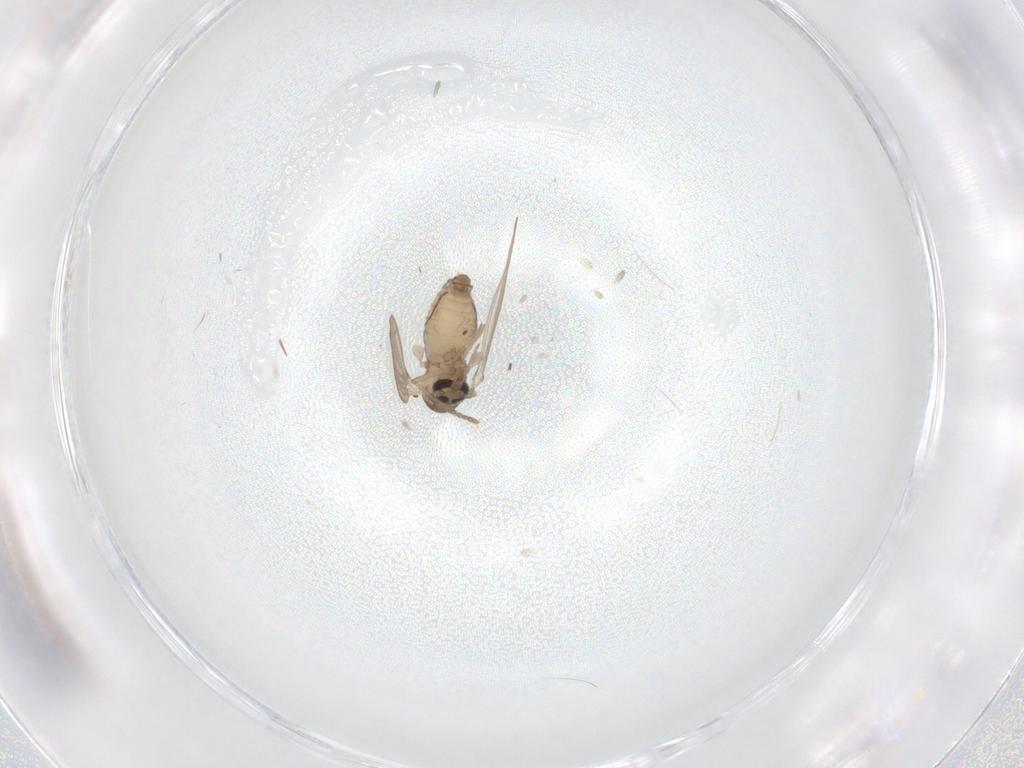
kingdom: Animalia
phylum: Arthropoda
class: Insecta
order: Diptera
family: Psychodidae
